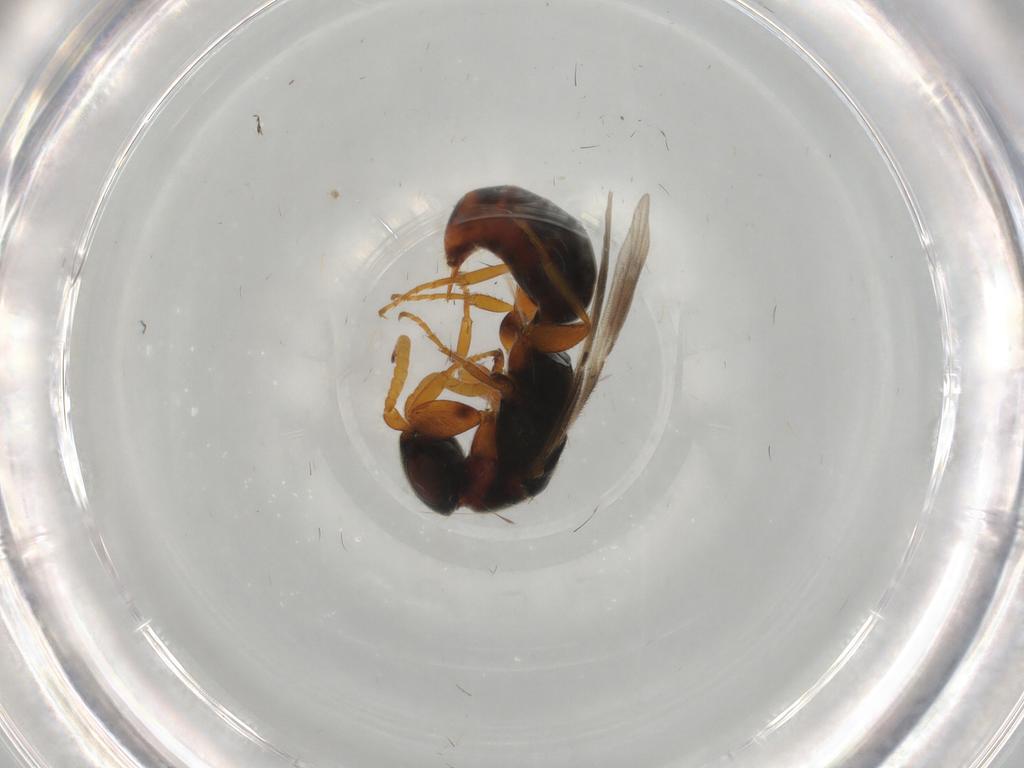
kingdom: Animalia
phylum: Arthropoda
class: Insecta
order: Hymenoptera
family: Bethylidae
